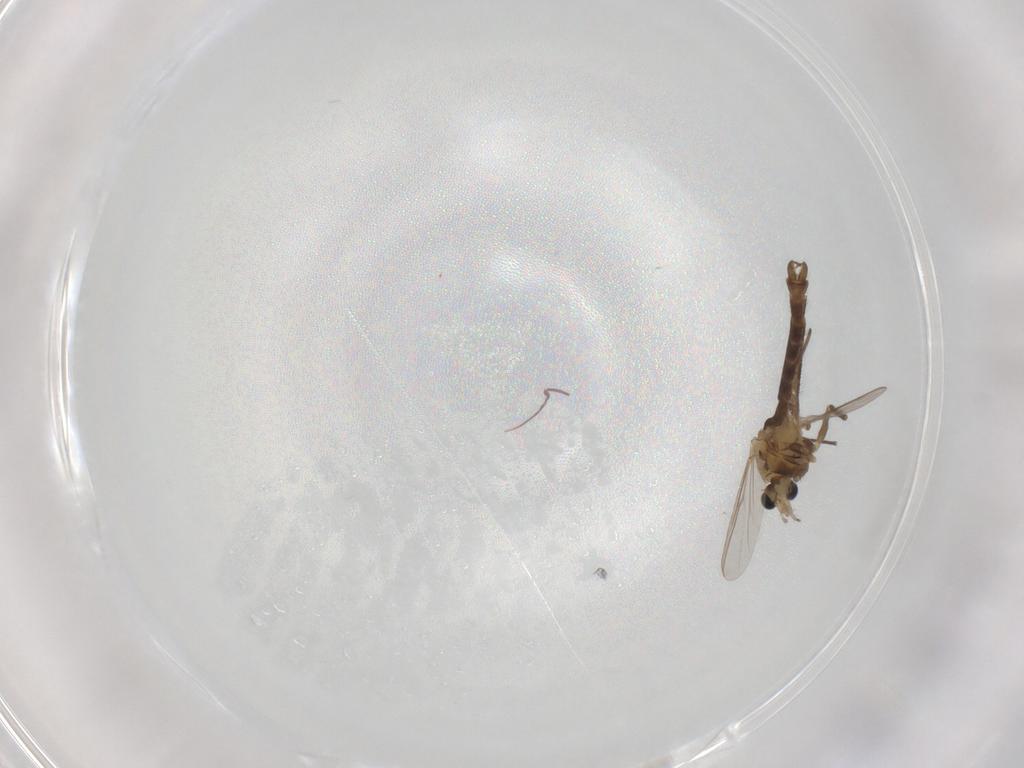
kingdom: Animalia
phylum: Arthropoda
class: Insecta
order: Diptera
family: Chironomidae
